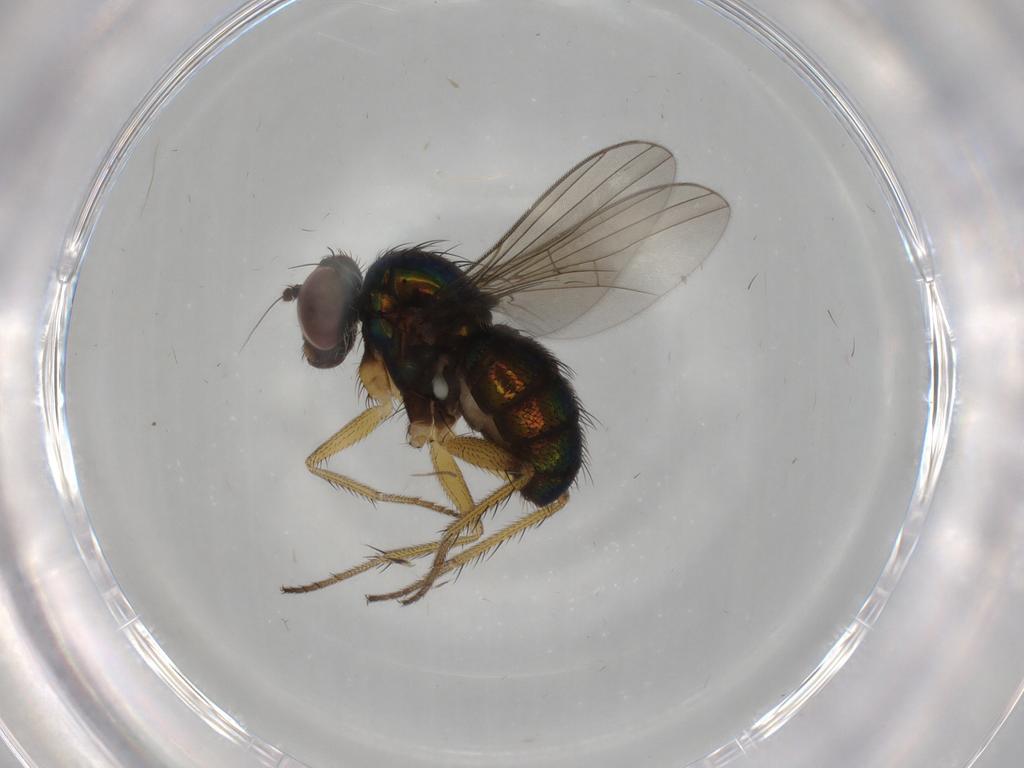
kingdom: Animalia
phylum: Arthropoda
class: Insecta
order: Diptera
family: Dolichopodidae
